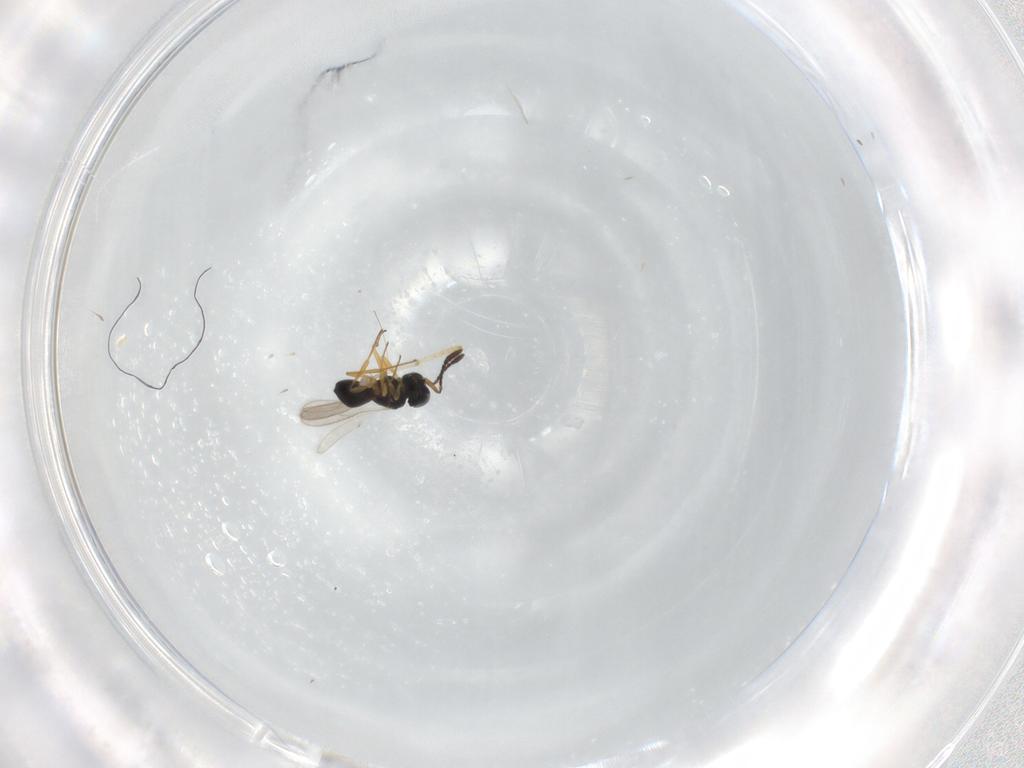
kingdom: Animalia
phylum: Arthropoda
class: Insecta
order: Hymenoptera
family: Scelionidae
